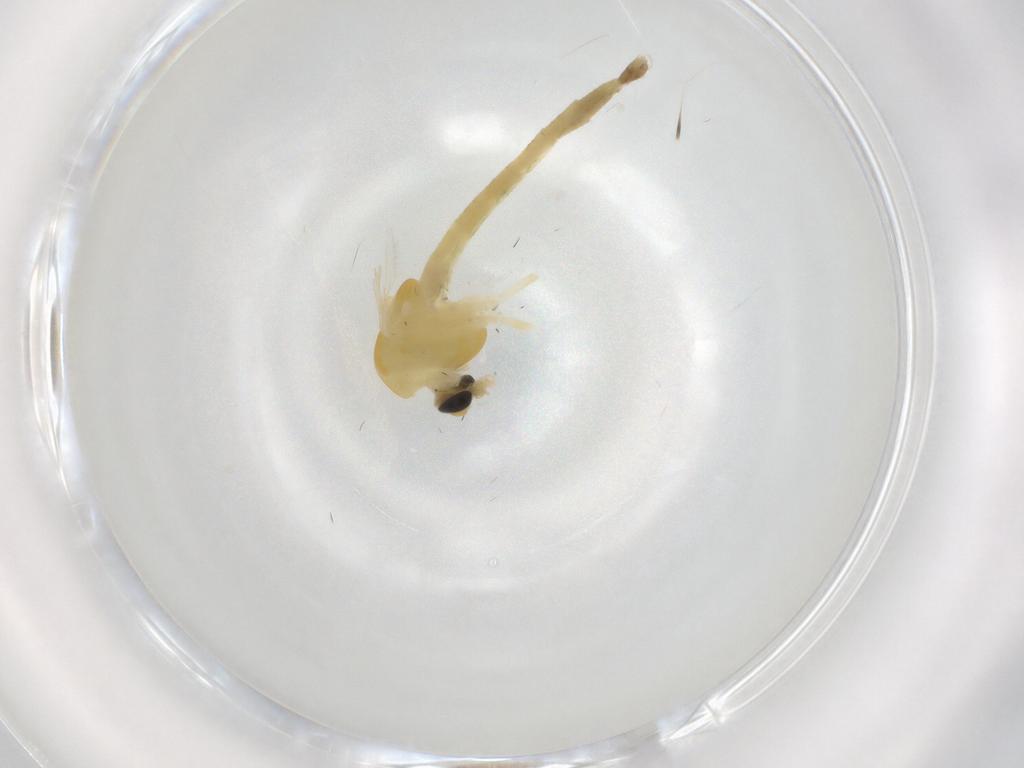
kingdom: Animalia
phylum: Arthropoda
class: Insecta
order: Diptera
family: Chironomidae
